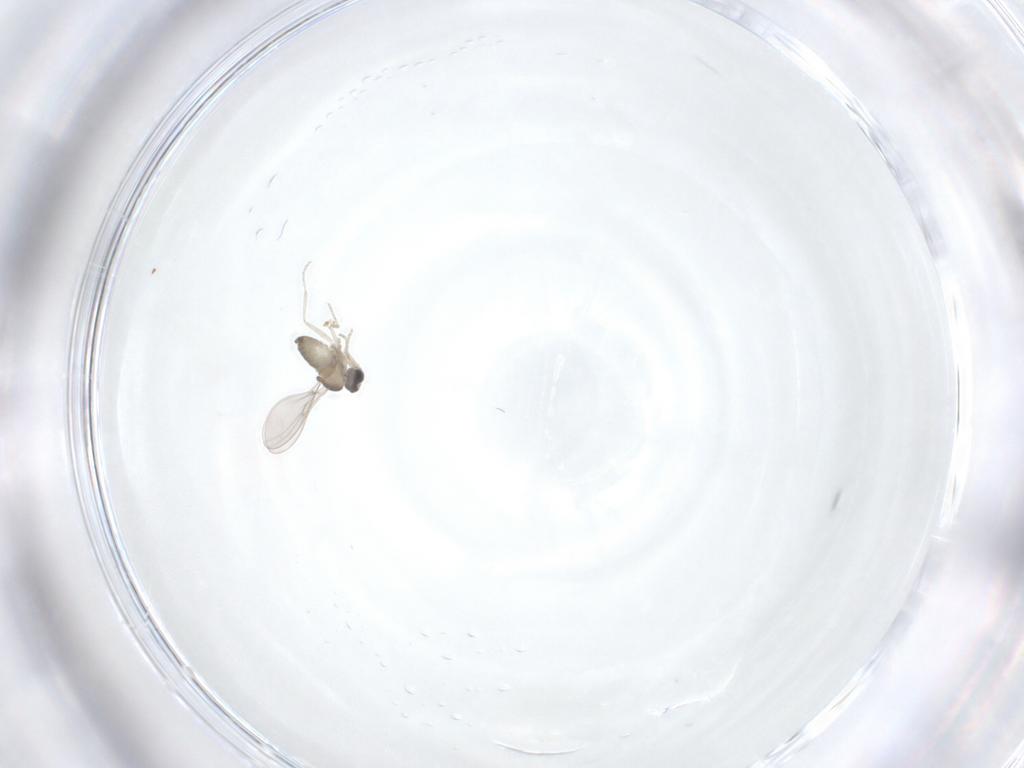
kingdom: Animalia
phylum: Arthropoda
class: Insecta
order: Diptera
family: Cecidomyiidae
